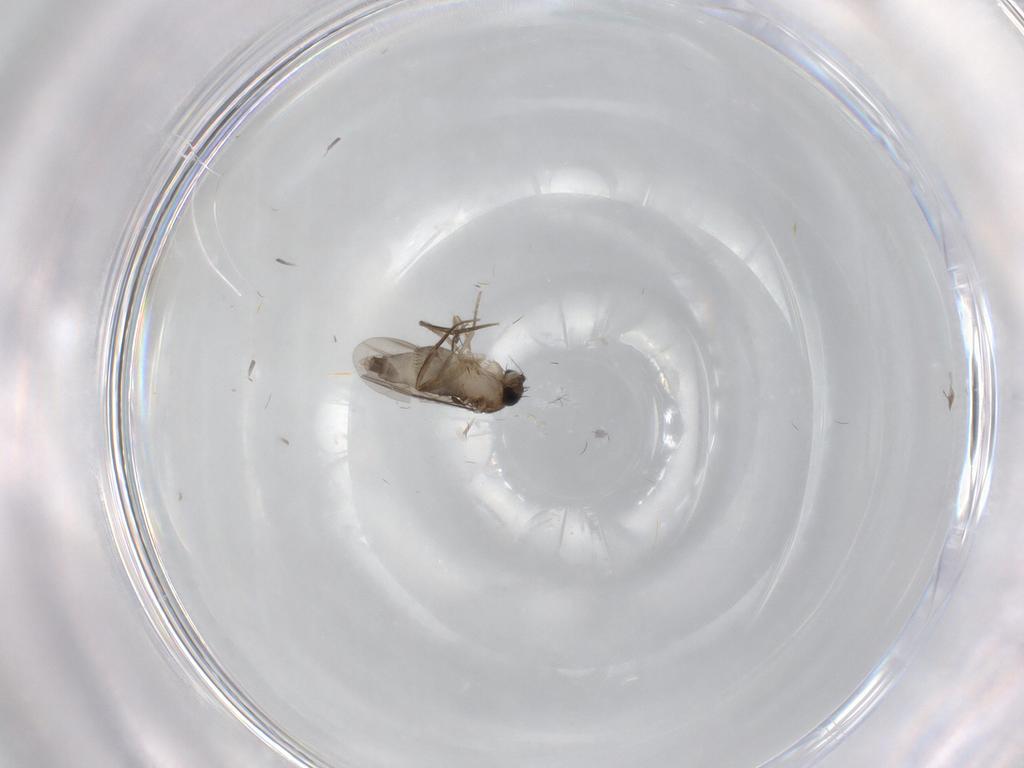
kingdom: Animalia
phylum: Arthropoda
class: Insecta
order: Diptera
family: Phoridae
